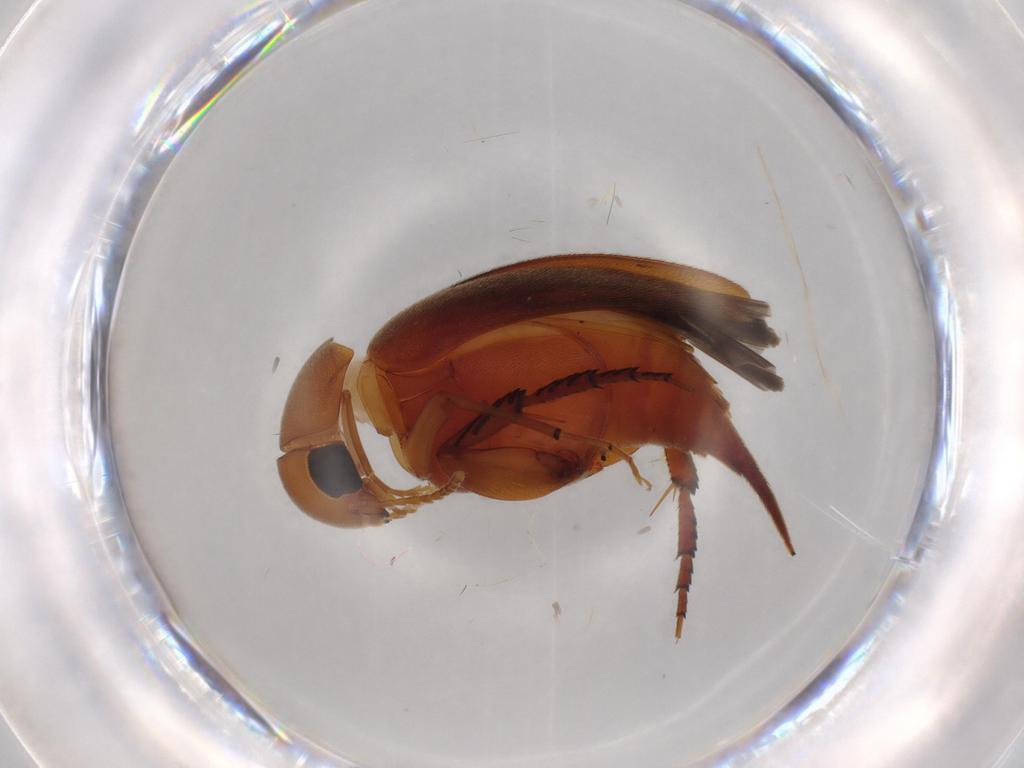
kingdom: Animalia
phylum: Arthropoda
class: Insecta
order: Coleoptera
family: Mordellidae
